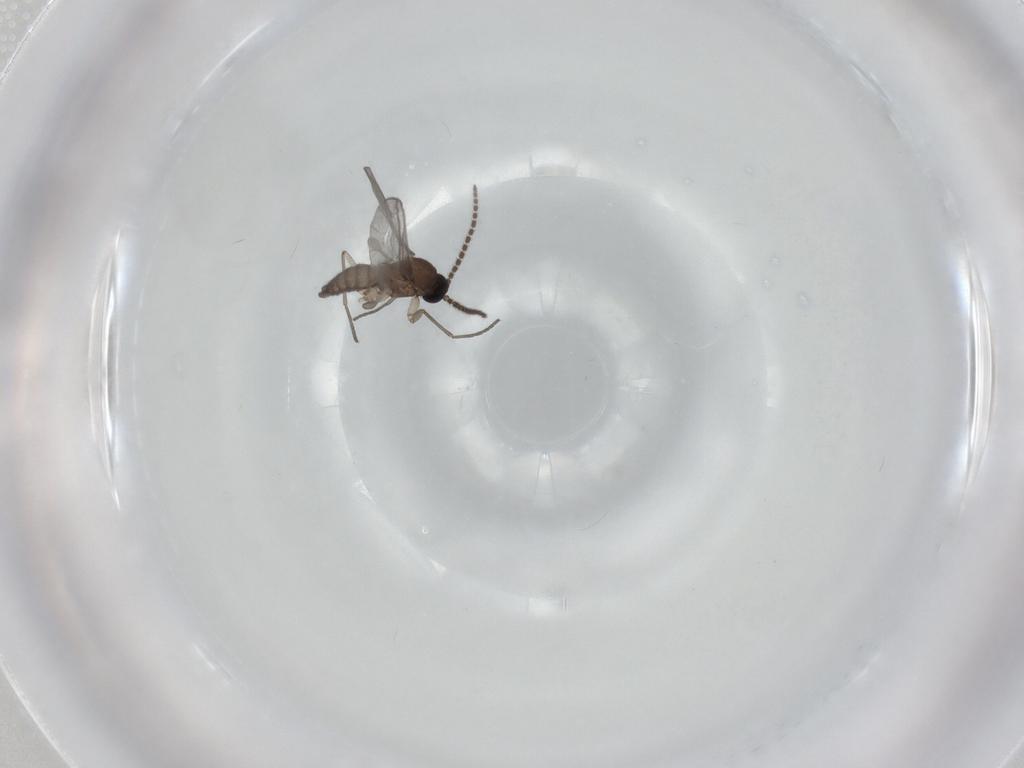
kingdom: Animalia
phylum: Arthropoda
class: Insecta
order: Diptera
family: Sciaridae
